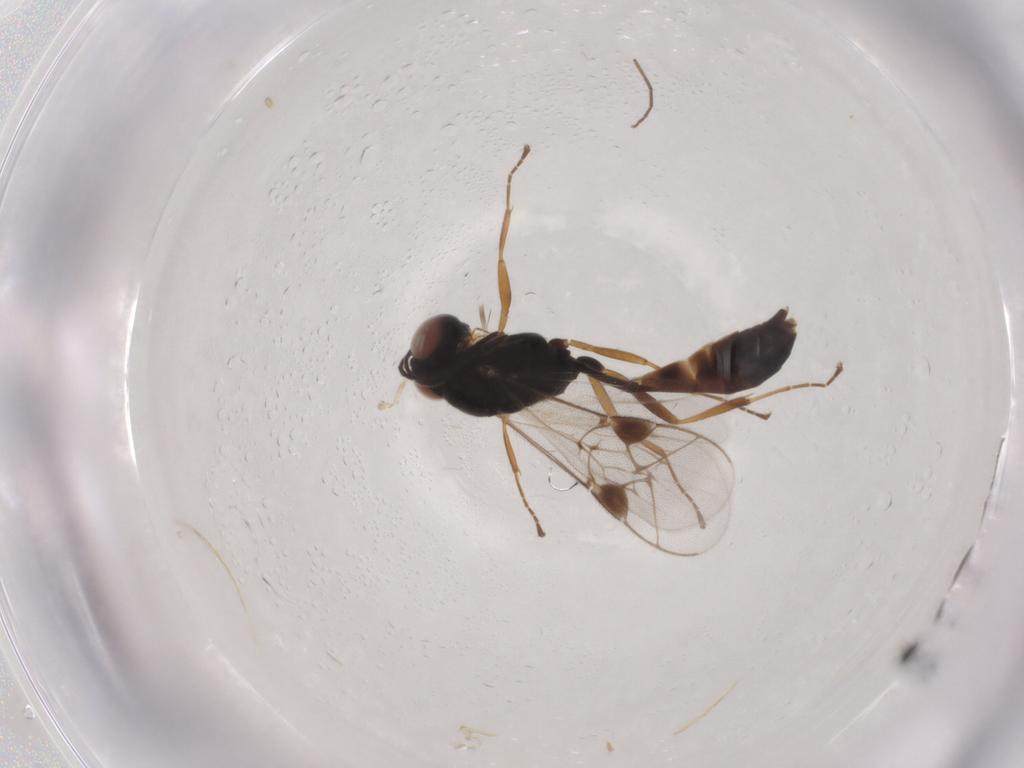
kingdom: Animalia
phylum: Arthropoda
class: Insecta
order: Hymenoptera
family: Ichneumonidae
